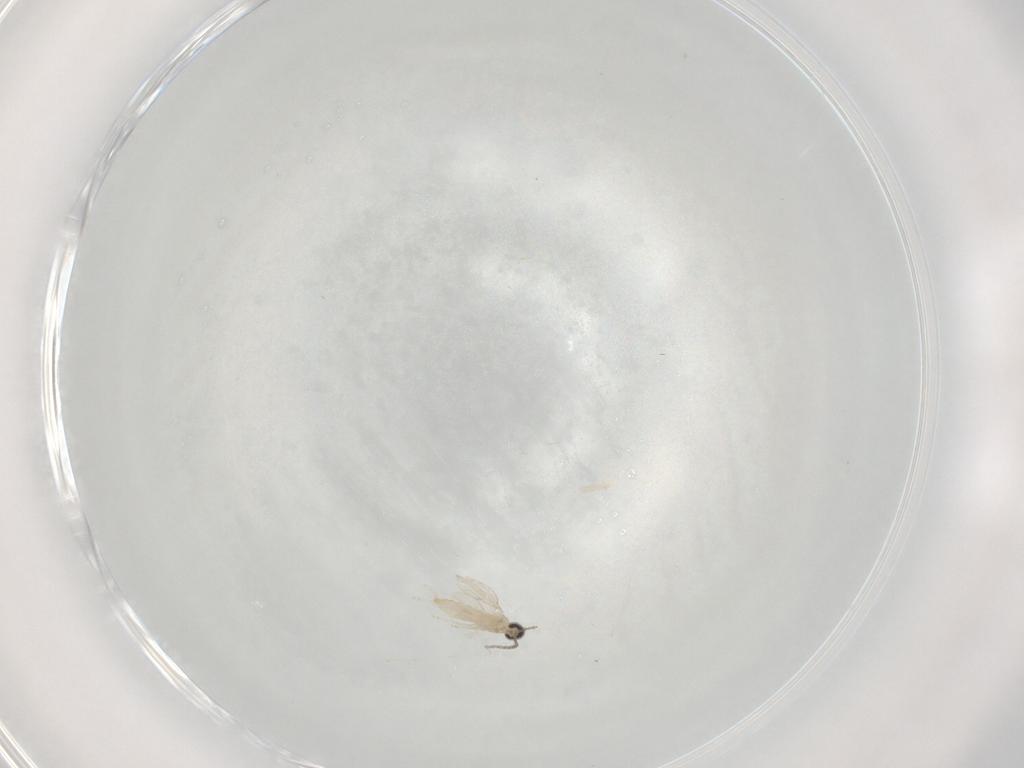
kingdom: Animalia
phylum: Arthropoda
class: Insecta
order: Diptera
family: Cecidomyiidae
